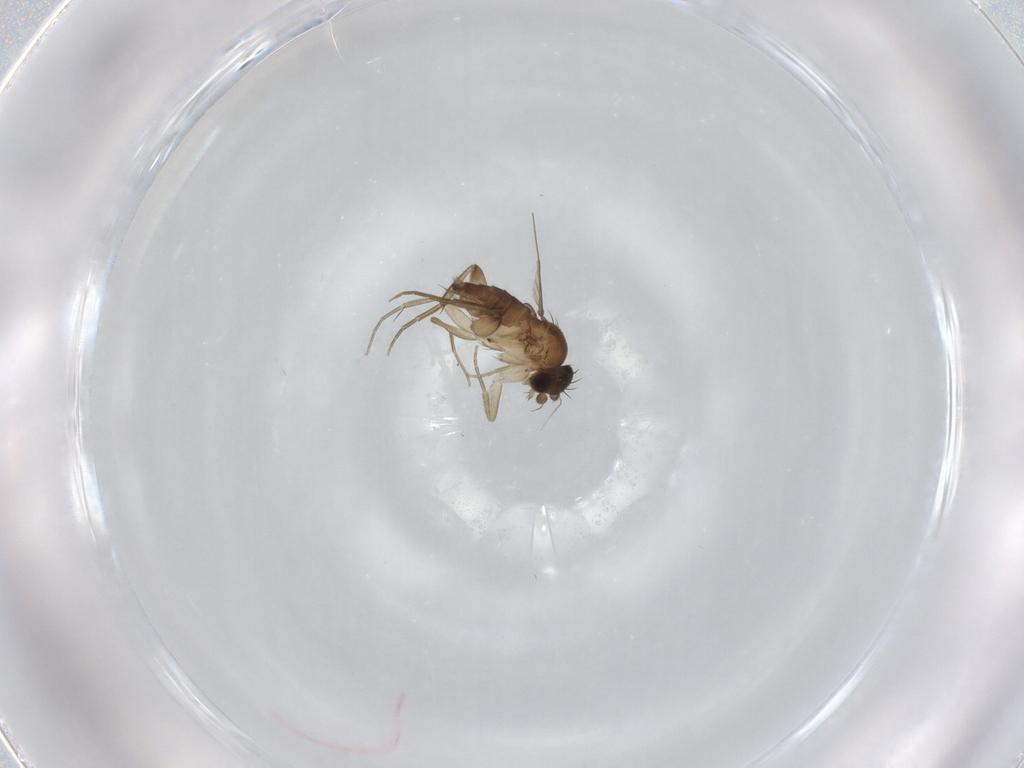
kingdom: Animalia
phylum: Arthropoda
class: Insecta
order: Diptera
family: Phoridae
